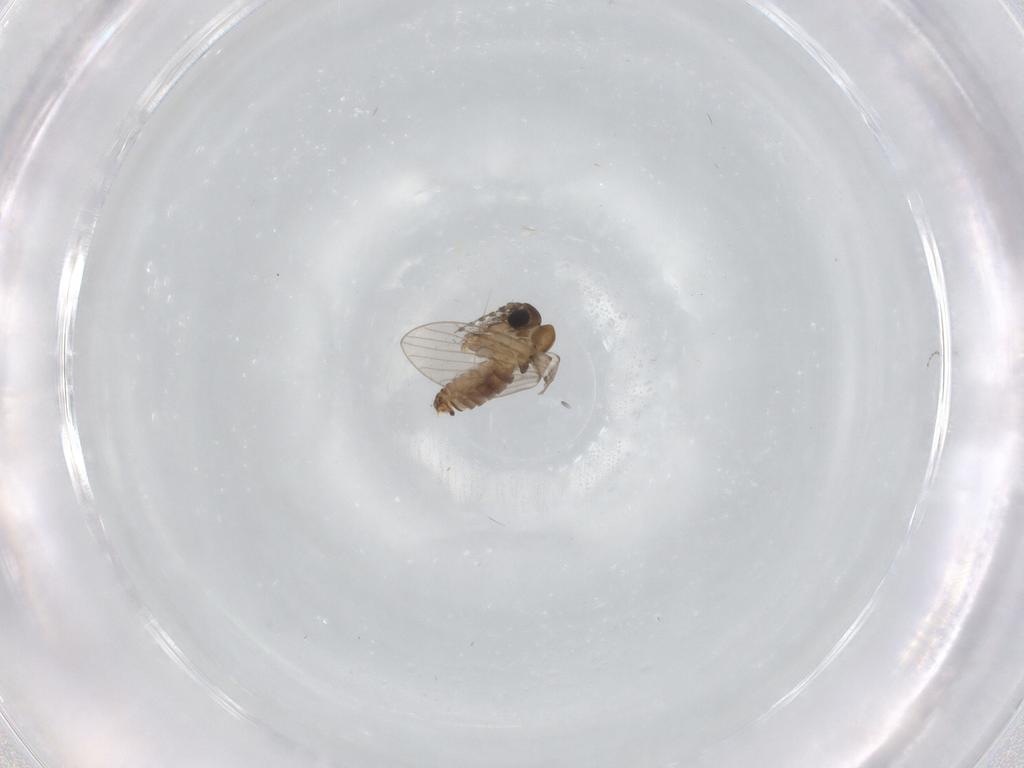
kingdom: Animalia
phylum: Arthropoda
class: Insecta
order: Diptera
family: Psychodidae
